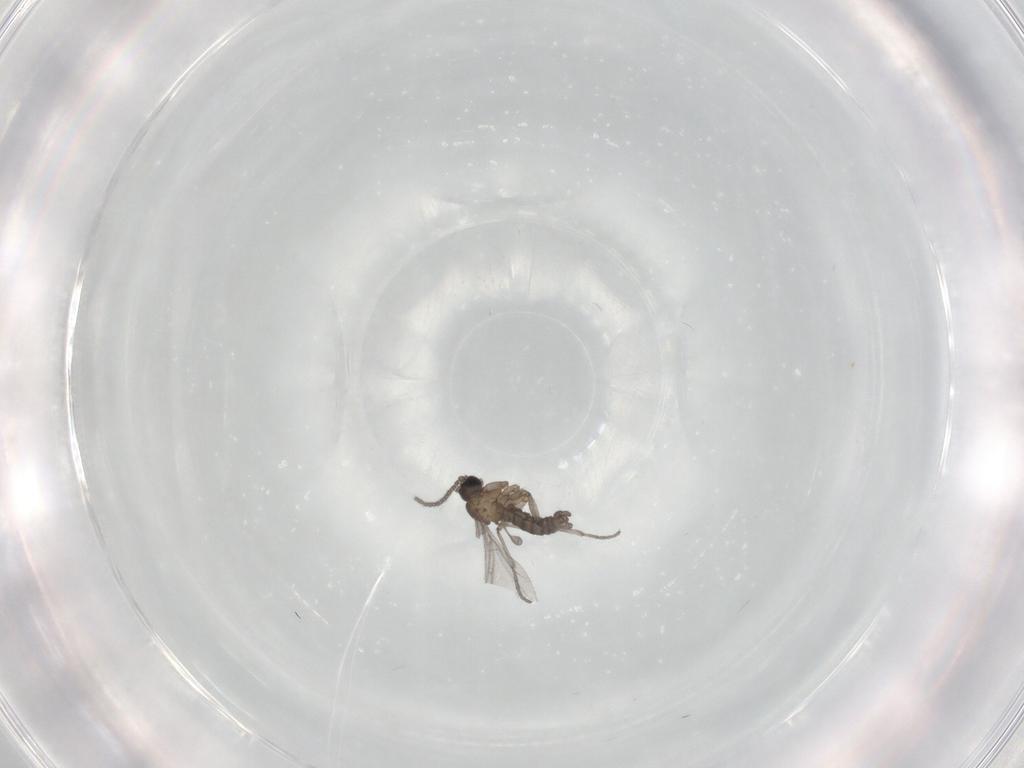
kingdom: Animalia
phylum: Arthropoda
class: Insecta
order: Diptera
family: Sciaridae
